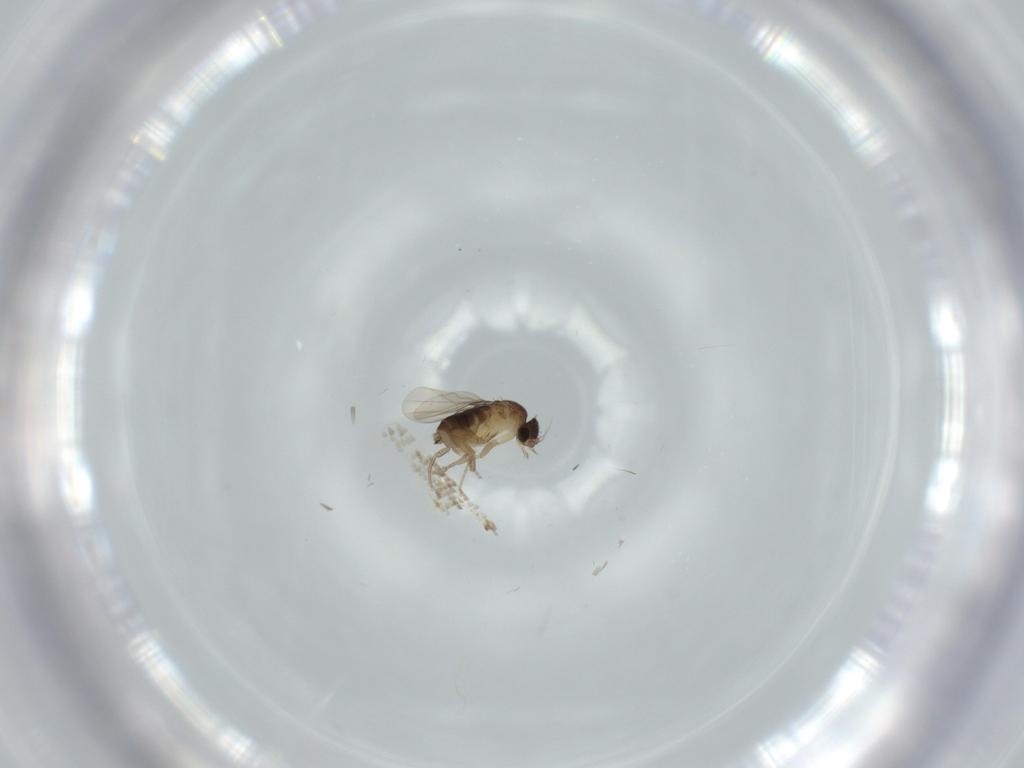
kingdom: Animalia
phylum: Arthropoda
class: Insecta
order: Diptera
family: Phoridae
